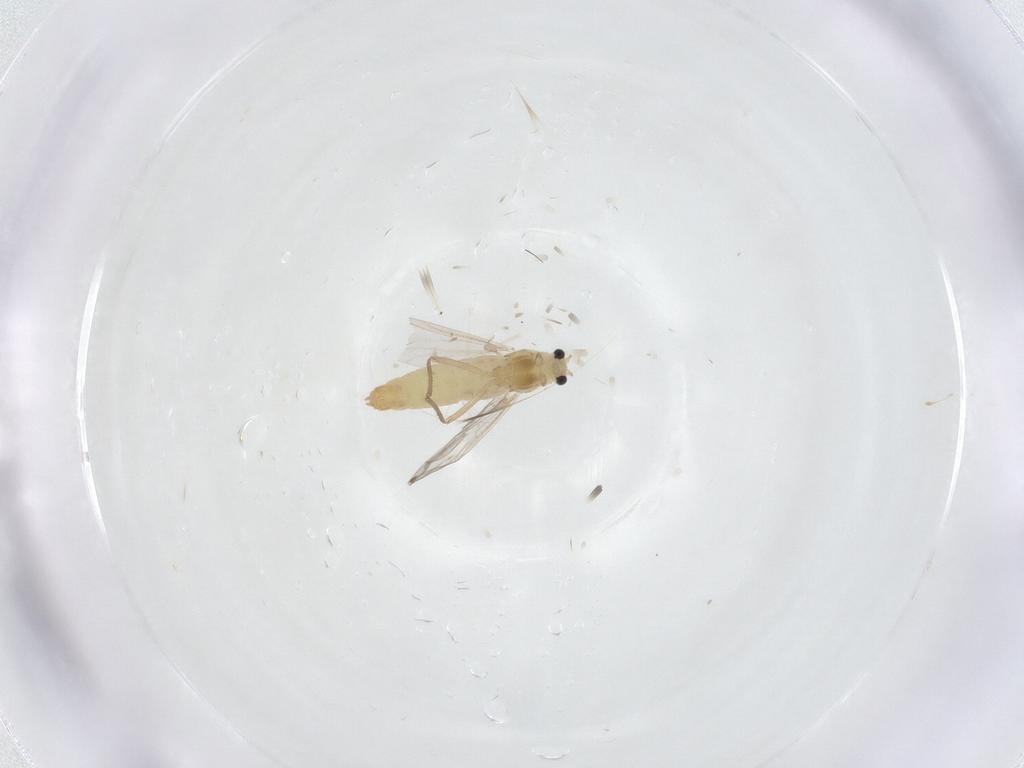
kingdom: Animalia
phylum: Arthropoda
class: Insecta
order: Diptera
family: Chironomidae
